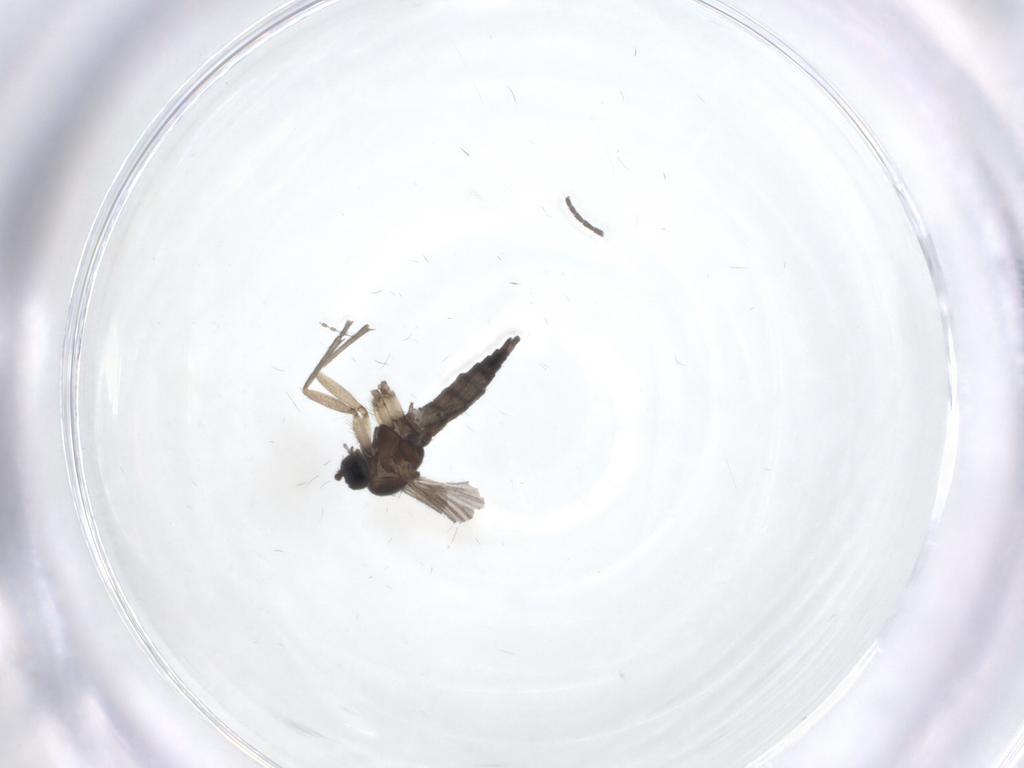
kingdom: Animalia
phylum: Arthropoda
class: Insecta
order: Diptera
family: Sciaridae
